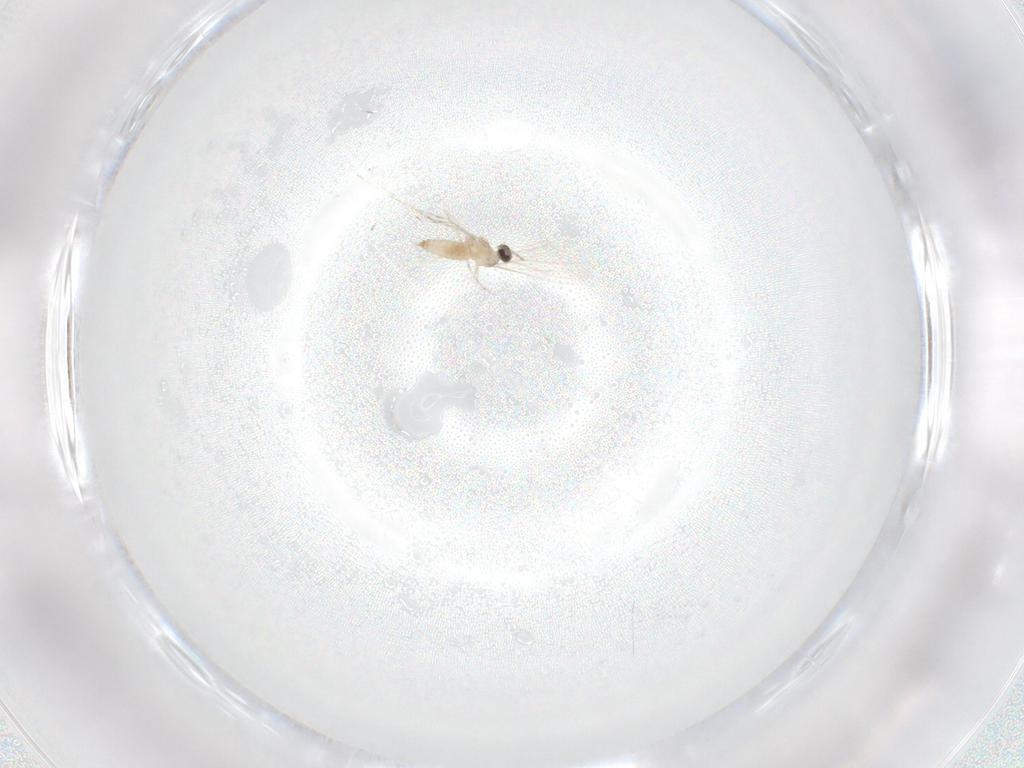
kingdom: Animalia
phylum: Arthropoda
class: Insecta
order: Diptera
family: Cecidomyiidae
